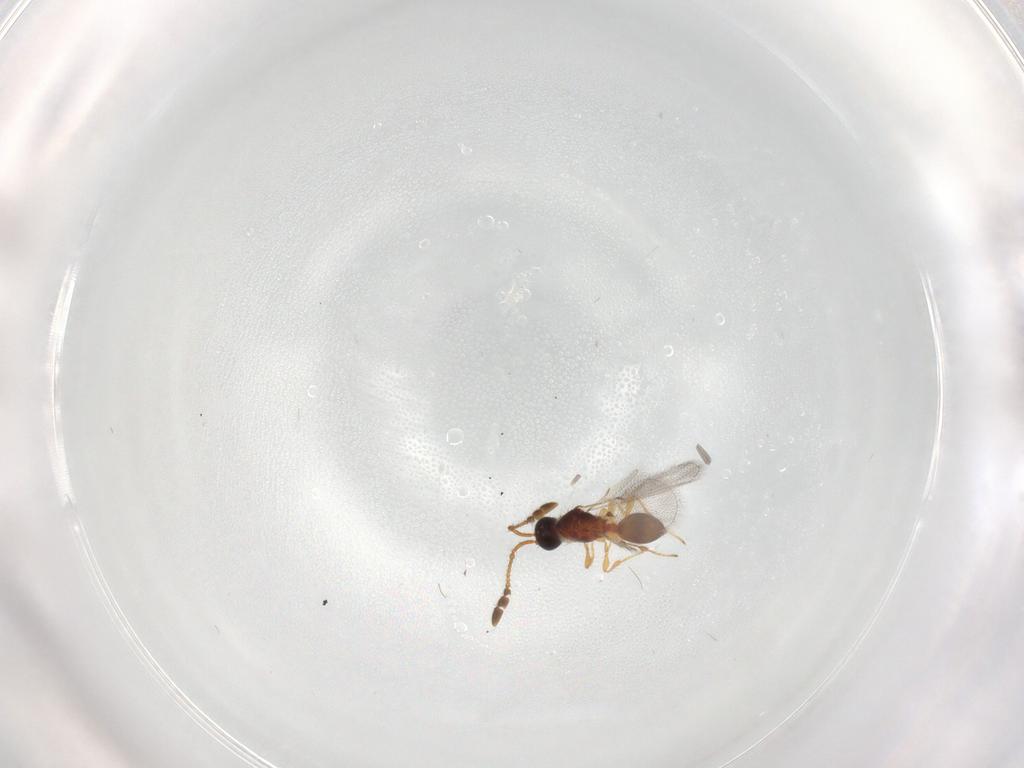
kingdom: Animalia
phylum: Arthropoda
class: Insecta
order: Hymenoptera
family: Diapriidae
